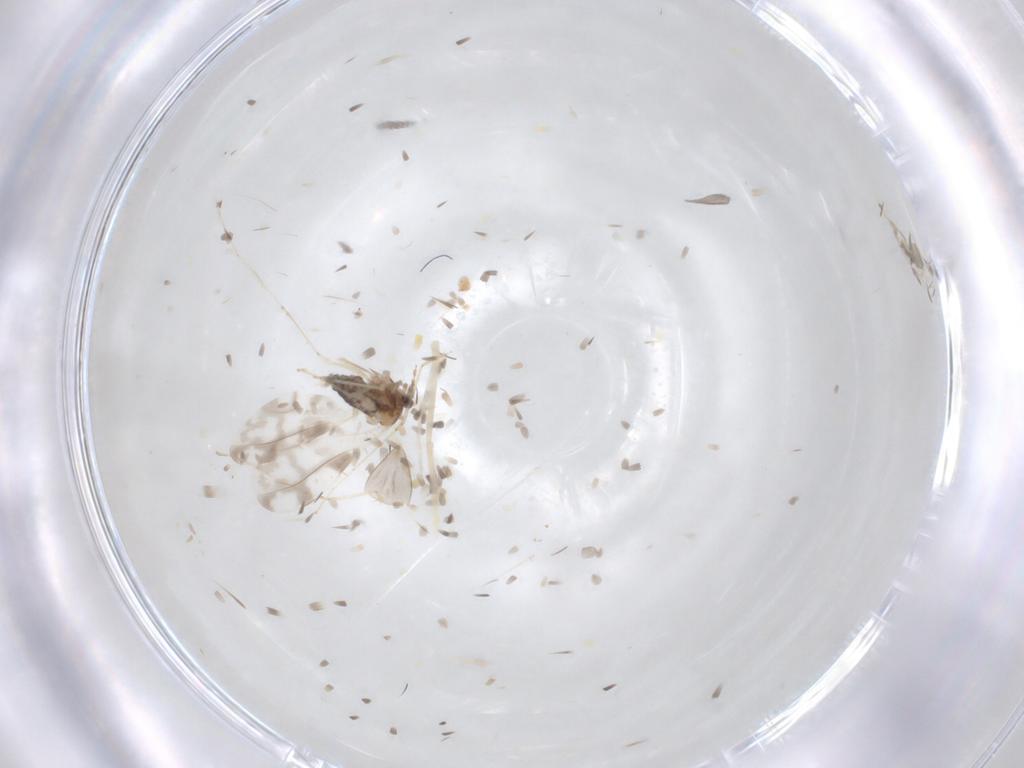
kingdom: Animalia
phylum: Arthropoda
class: Insecta
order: Diptera
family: Cecidomyiidae
